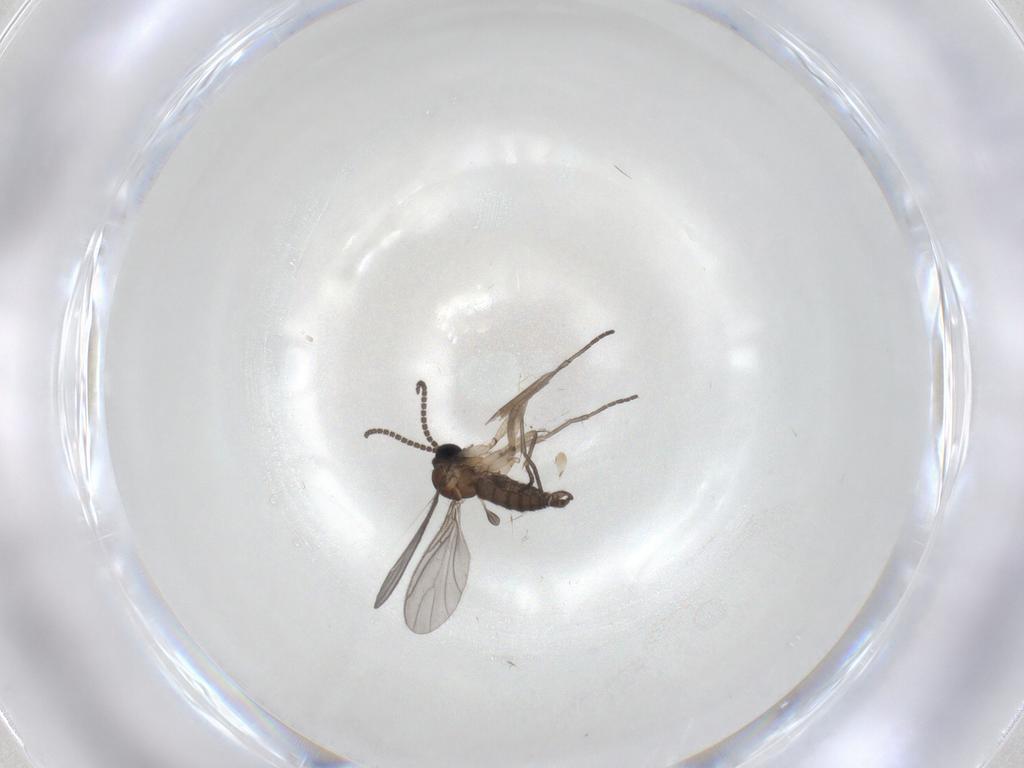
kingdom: Animalia
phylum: Arthropoda
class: Insecta
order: Diptera
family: Sciaridae
